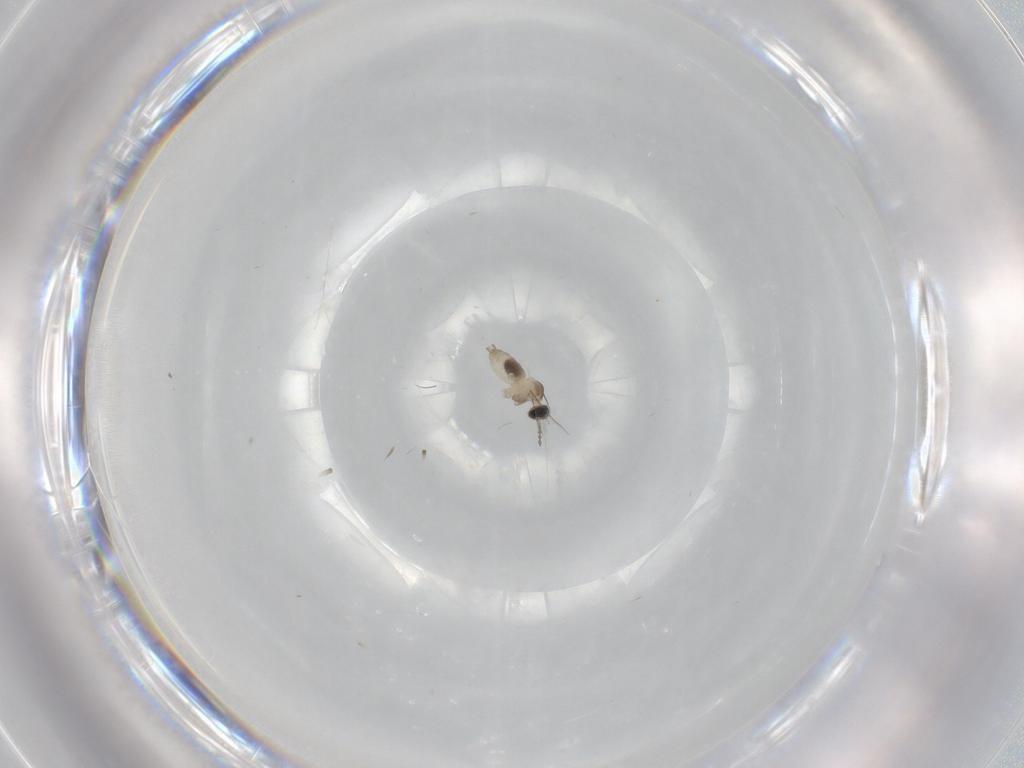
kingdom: Animalia
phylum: Arthropoda
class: Insecta
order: Diptera
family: Cecidomyiidae
